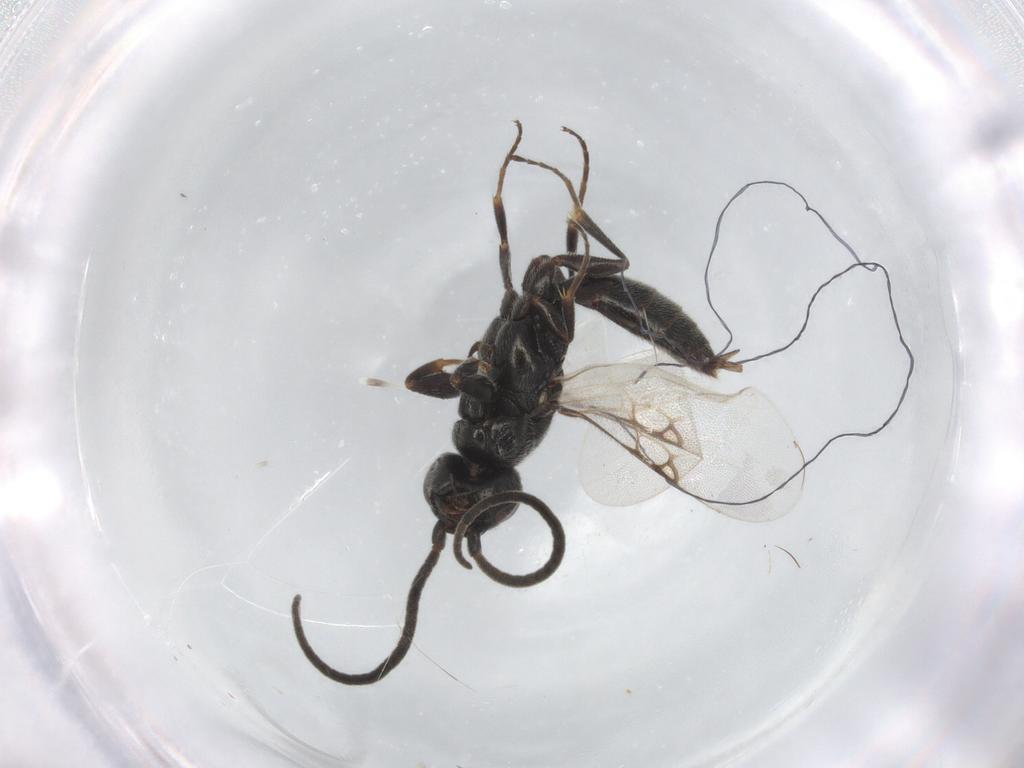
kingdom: Animalia
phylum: Arthropoda
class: Insecta
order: Hymenoptera
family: Sclerogibbidae
